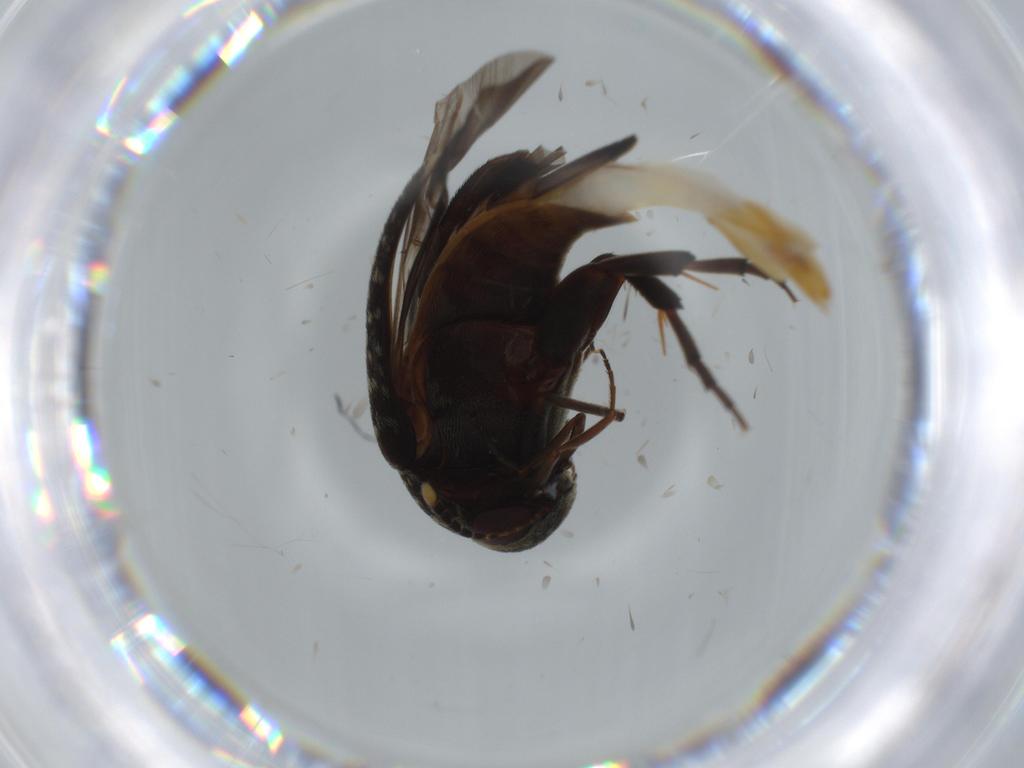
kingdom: Animalia
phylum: Arthropoda
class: Insecta
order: Coleoptera
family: Mordellidae
